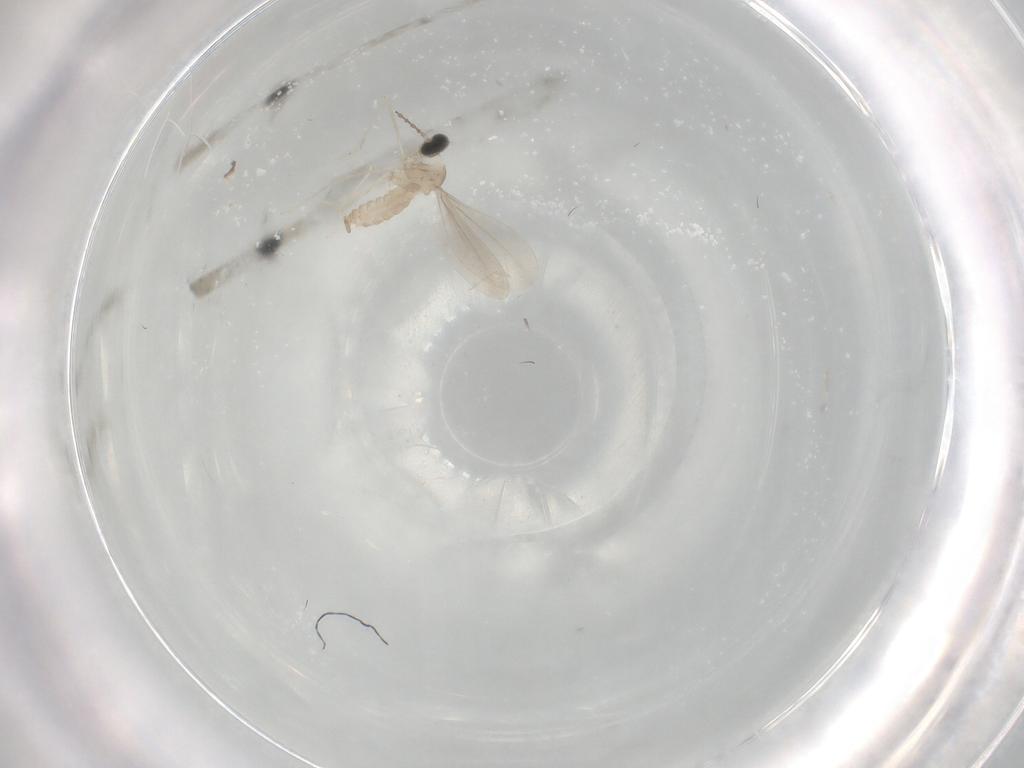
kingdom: Animalia
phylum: Arthropoda
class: Insecta
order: Diptera
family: Cecidomyiidae
